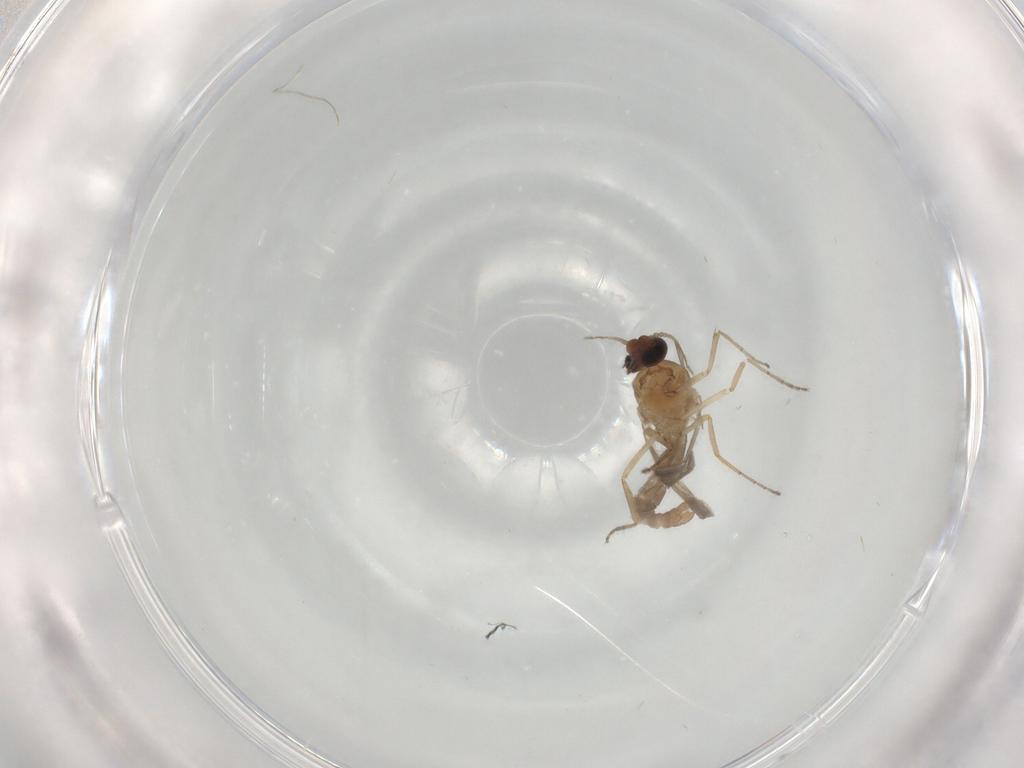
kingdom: Animalia
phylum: Arthropoda
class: Insecta
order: Diptera
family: Ceratopogonidae
